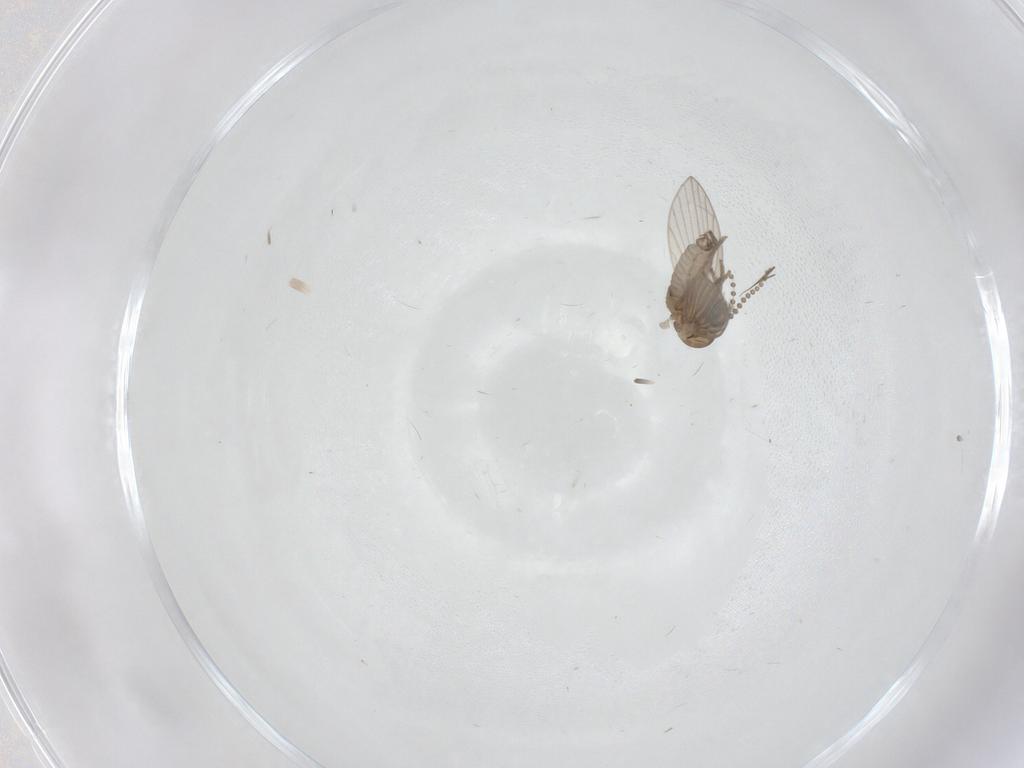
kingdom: Animalia
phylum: Arthropoda
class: Insecta
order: Diptera
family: Psychodidae
